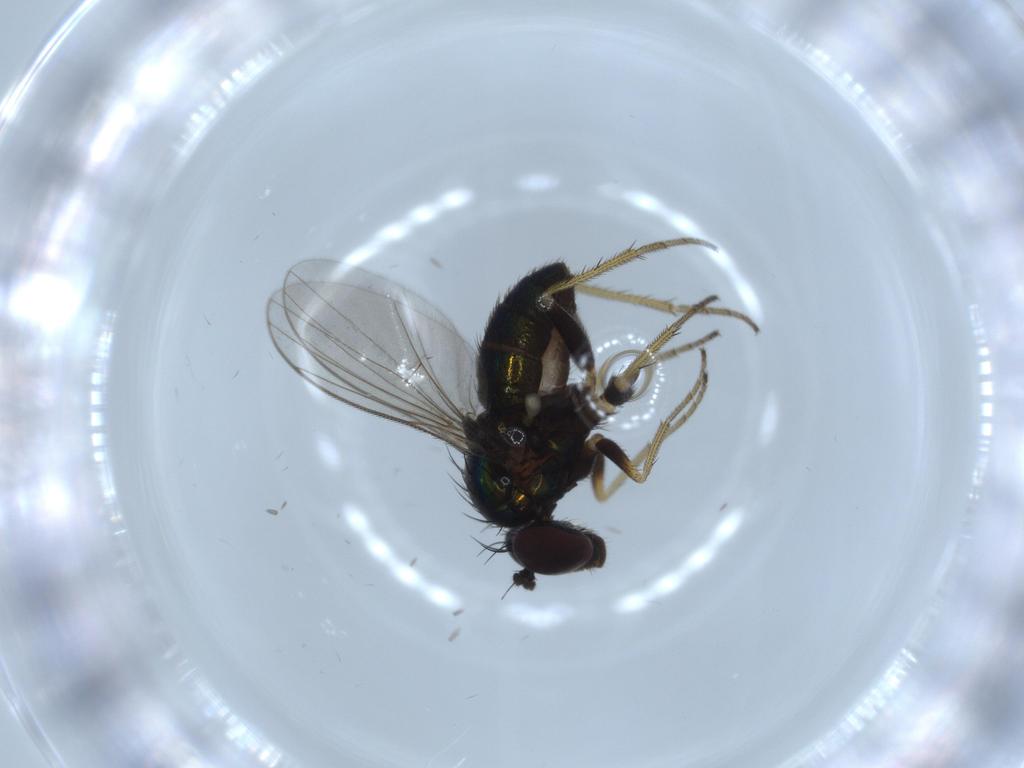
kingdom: Animalia
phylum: Arthropoda
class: Insecta
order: Diptera
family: Dolichopodidae
